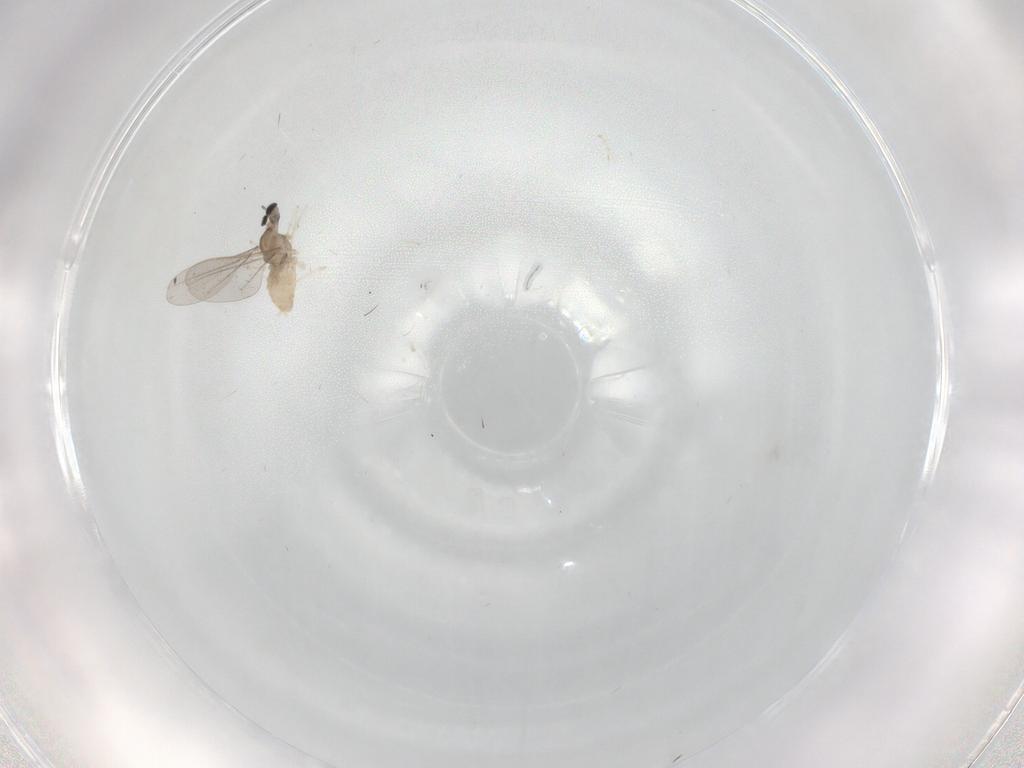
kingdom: Animalia
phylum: Arthropoda
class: Insecta
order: Diptera
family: Cecidomyiidae
